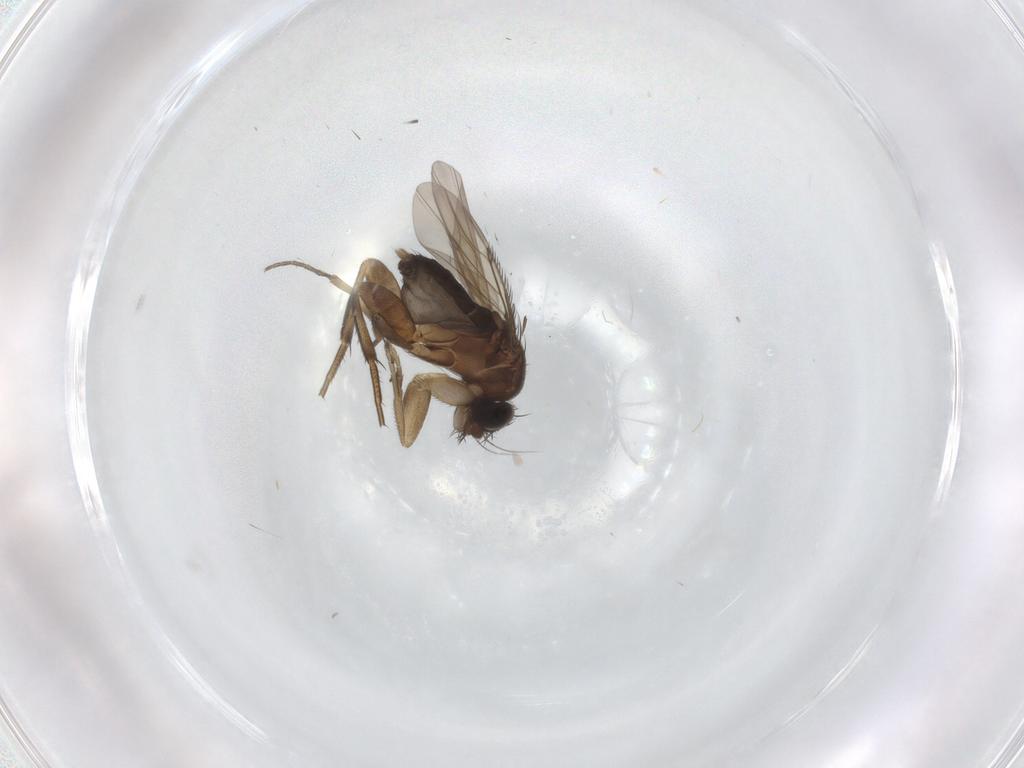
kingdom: Animalia
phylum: Arthropoda
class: Insecta
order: Diptera
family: Phoridae
